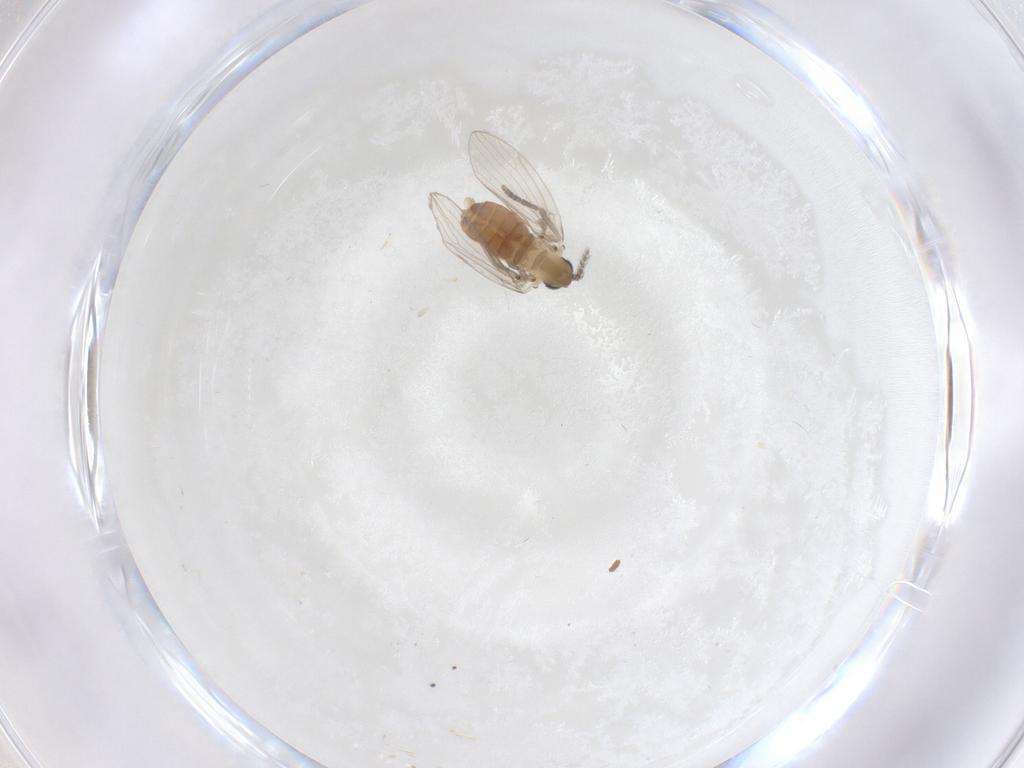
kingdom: Animalia
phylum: Arthropoda
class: Insecta
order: Diptera
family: Psychodidae
